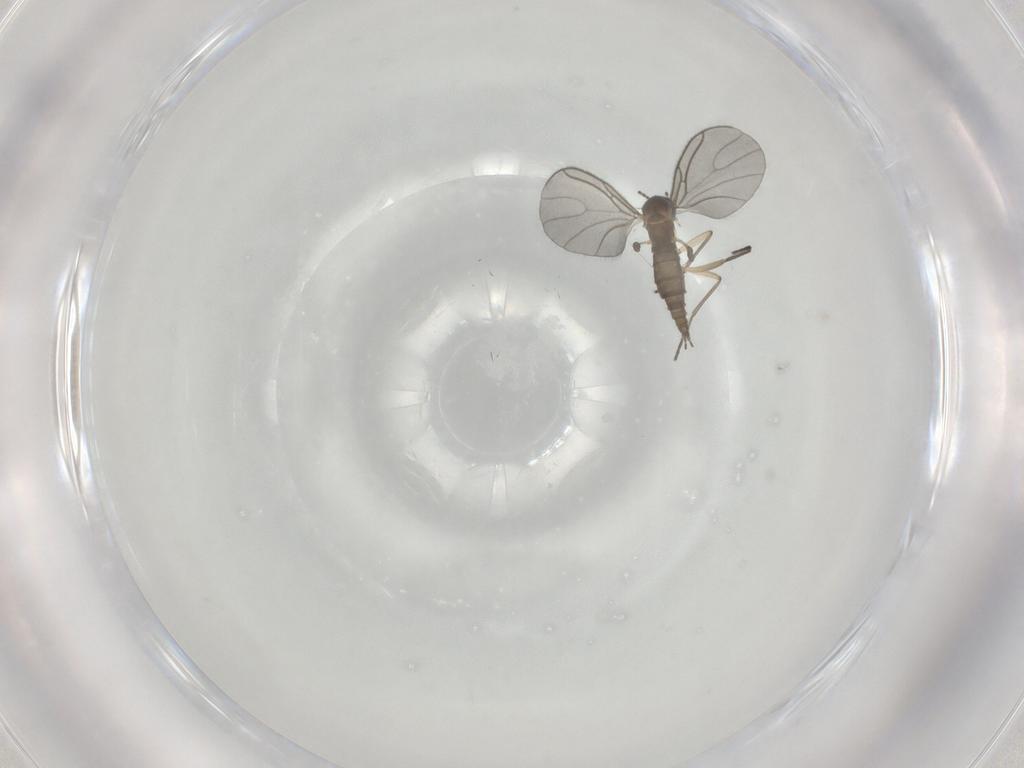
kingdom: Animalia
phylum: Arthropoda
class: Insecta
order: Diptera
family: Sciaridae
